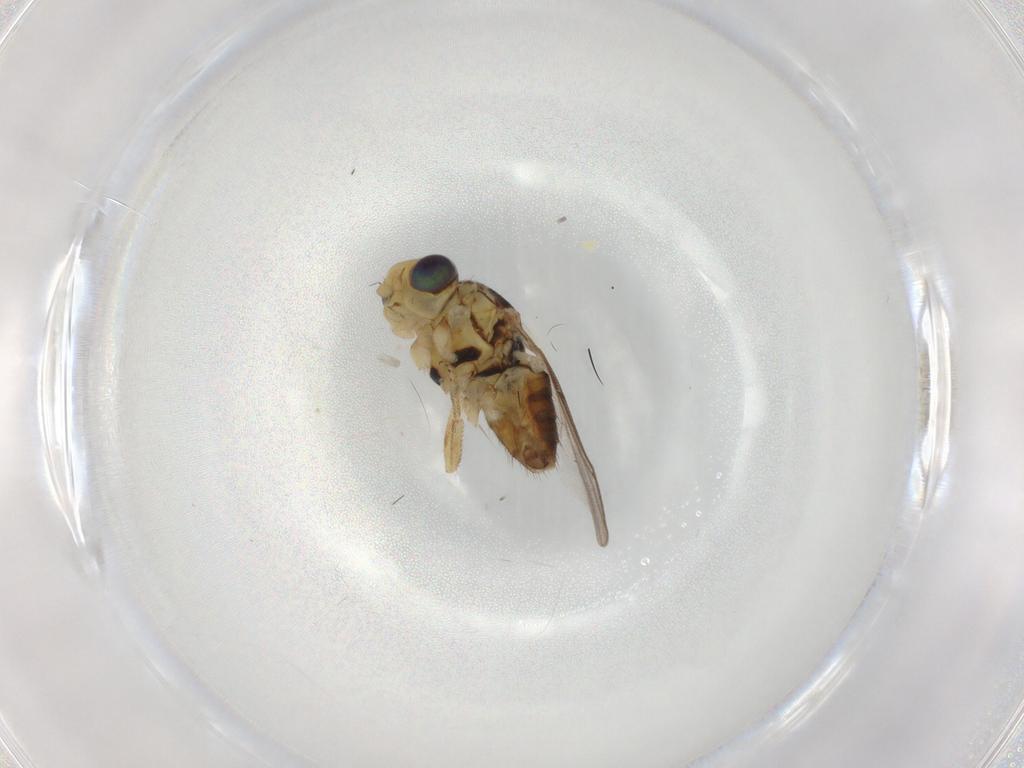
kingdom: Animalia
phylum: Arthropoda
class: Insecta
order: Diptera
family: Chloropidae
